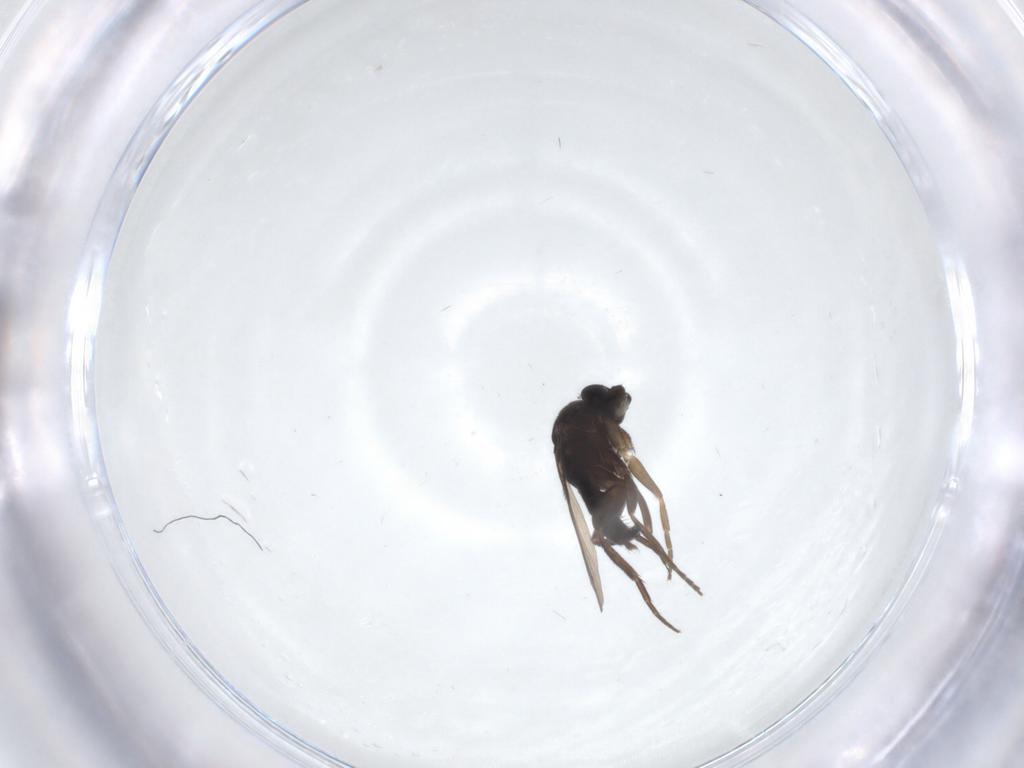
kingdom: Animalia
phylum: Arthropoda
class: Insecta
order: Diptera
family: Phoridae
